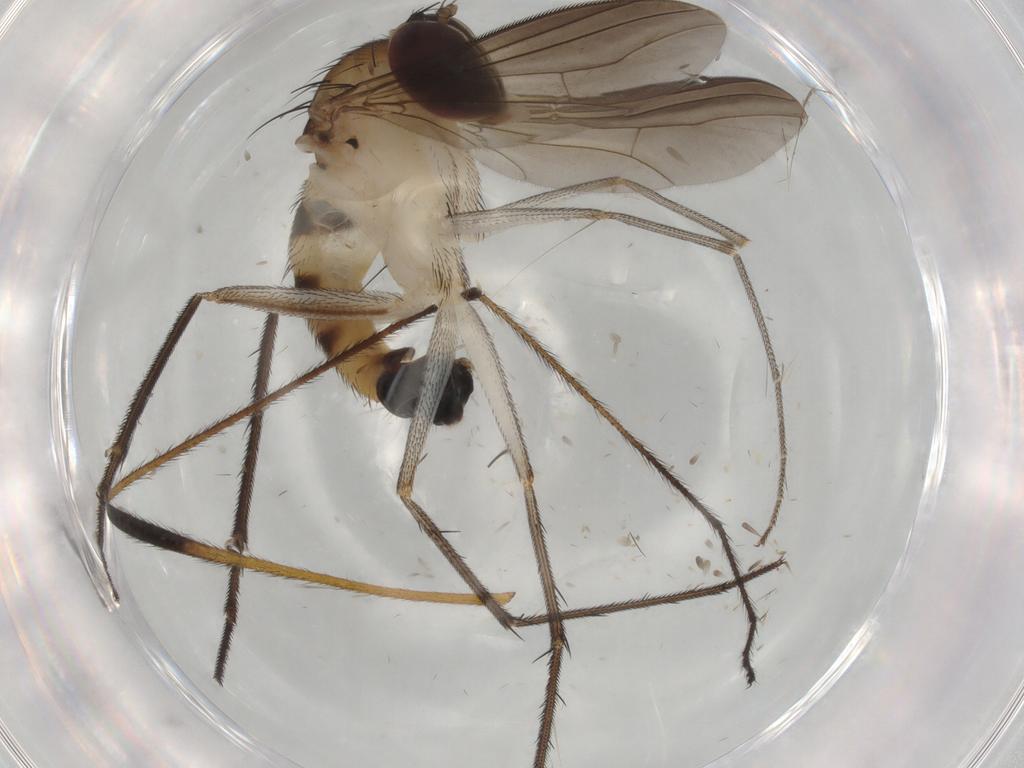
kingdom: Animalia
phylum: Arthropoda
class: Insecta
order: Diptera
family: Dolichopodidae
